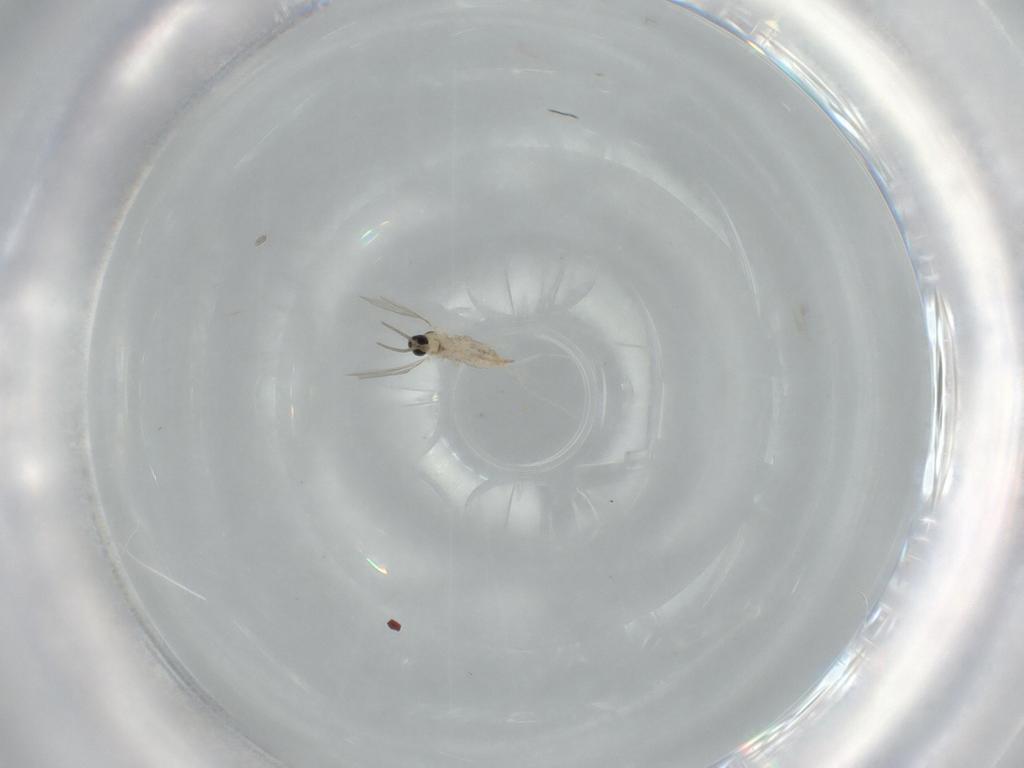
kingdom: Animalia
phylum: Arthropoda
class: Insecta
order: Diptera
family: Cecidomyiidae
